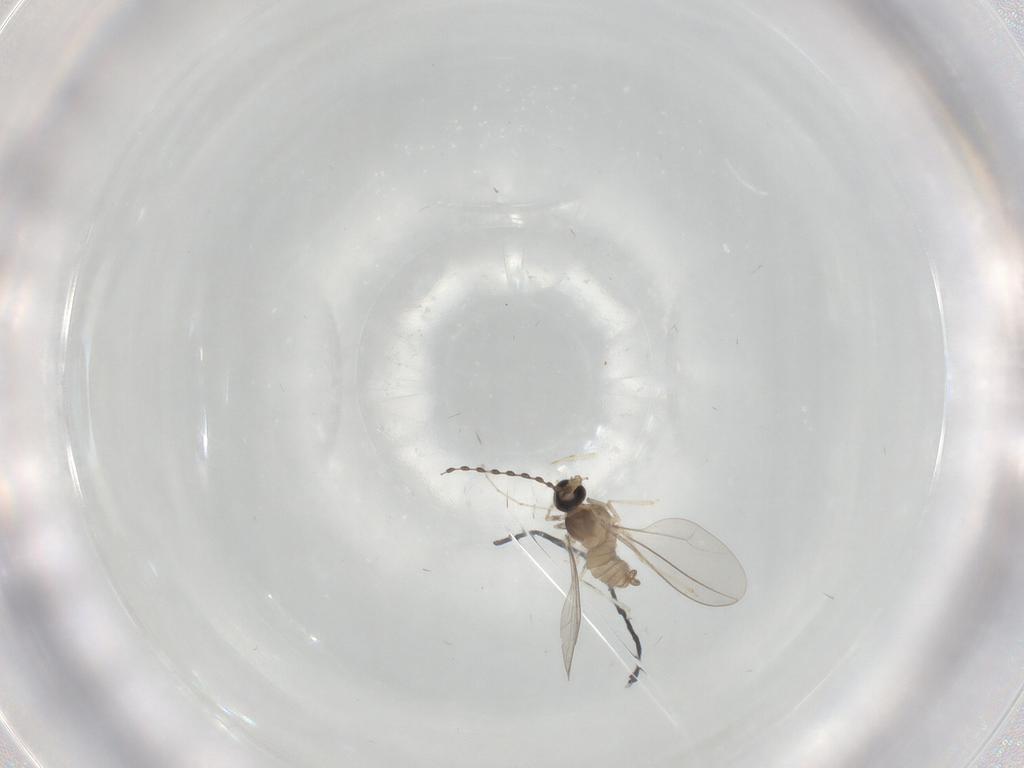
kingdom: Animalia
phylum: Arthropoda
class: Insecta
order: Diptera
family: Cecidomyiidae
